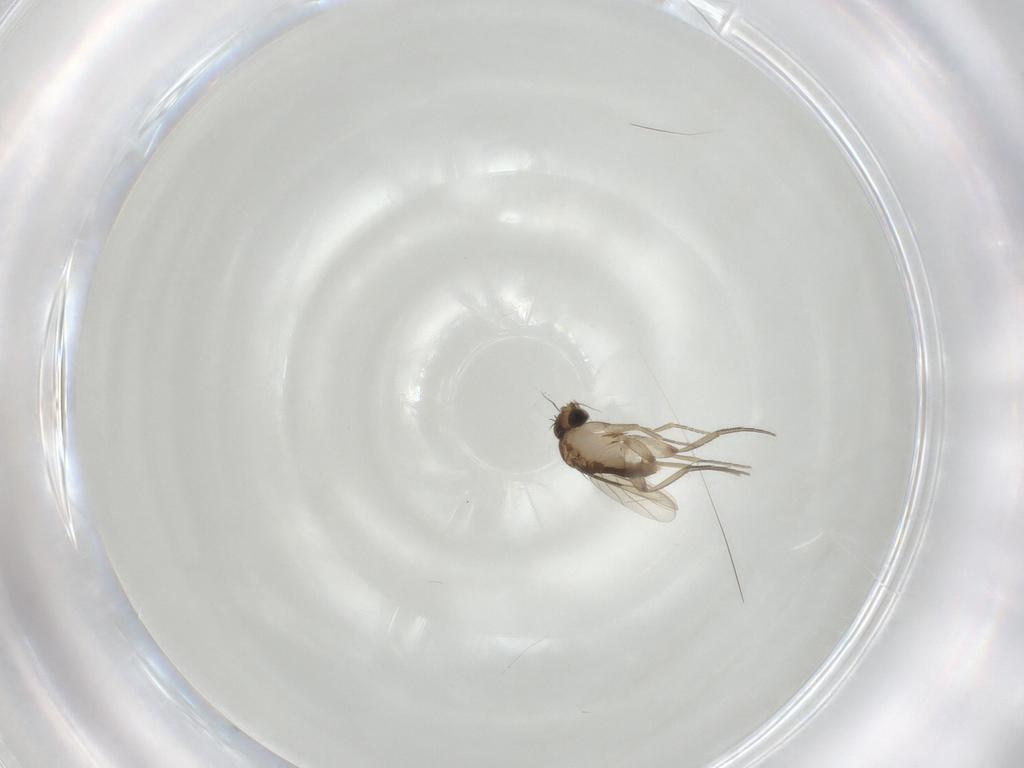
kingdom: Animalia
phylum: Arthropoda
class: Insecta
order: Diptera
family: Phoridae
